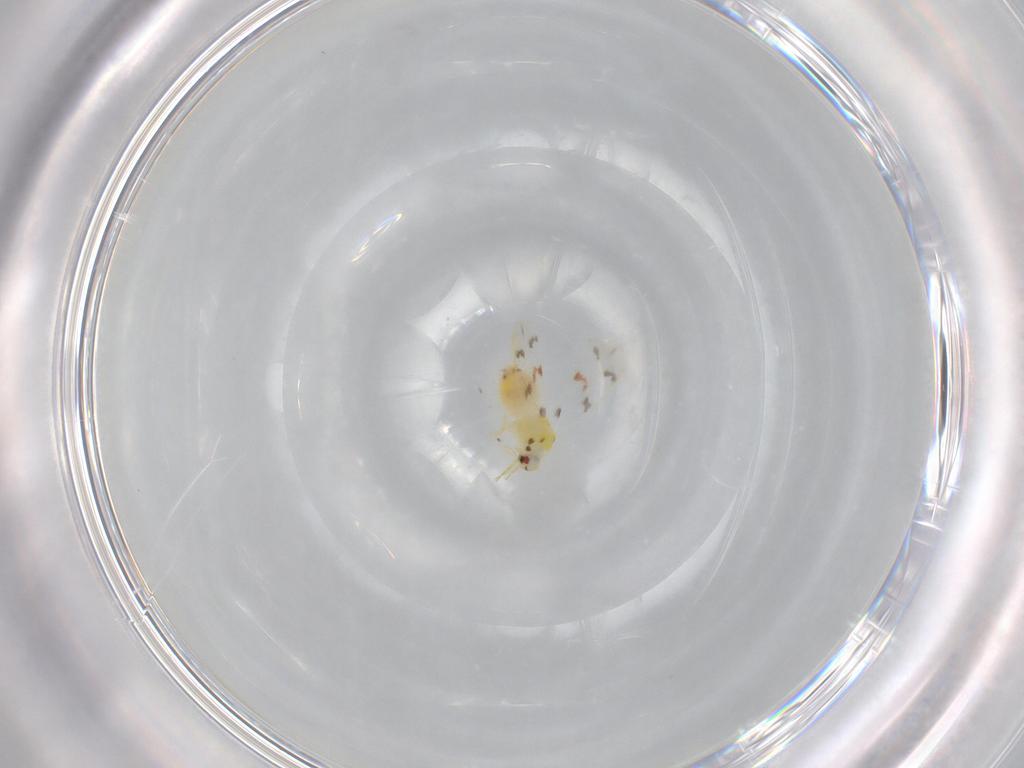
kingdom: Animalia
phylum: Arthropoda
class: Insecta
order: Hemiptera
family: Aleyrodidae
